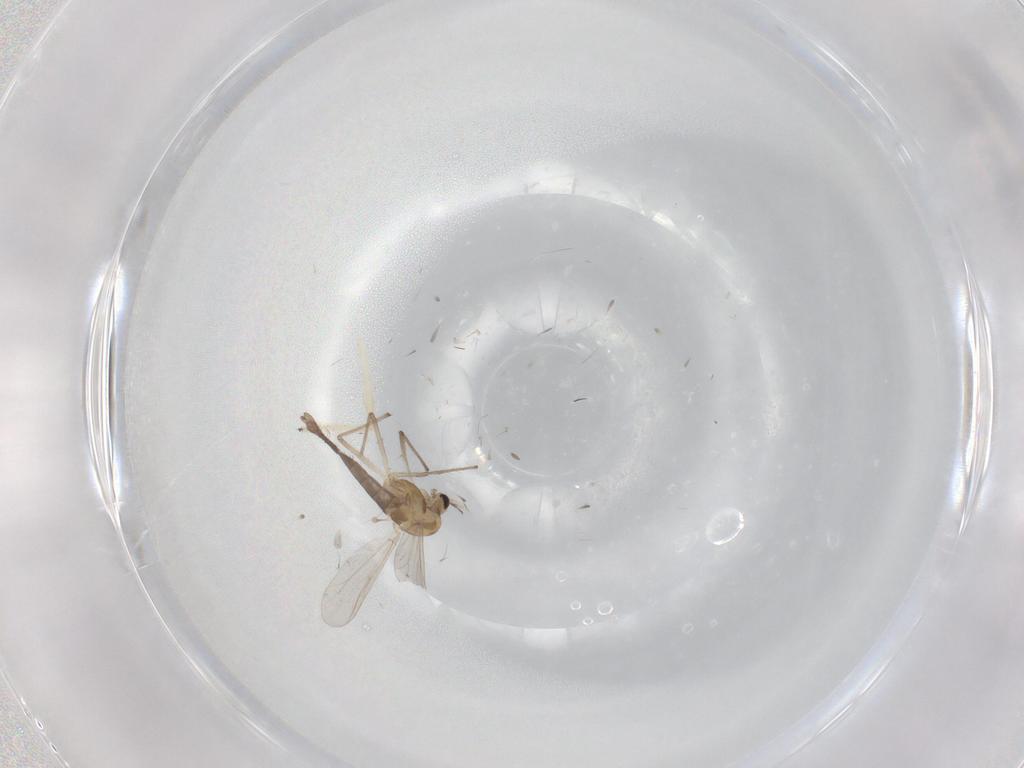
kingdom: Animalia
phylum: Arthropoda
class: Insecta
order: Diptera
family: Chironomidae
